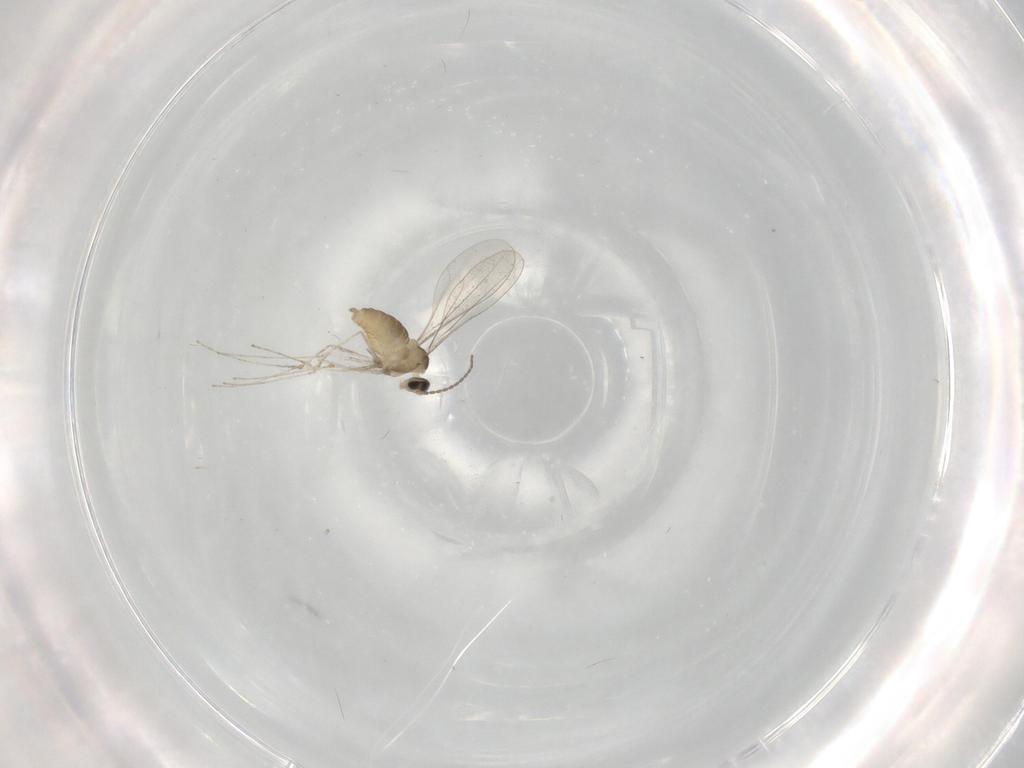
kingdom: Animalia
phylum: Arthropoda
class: Insecta
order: Diptera
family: Cecidomyiidae
